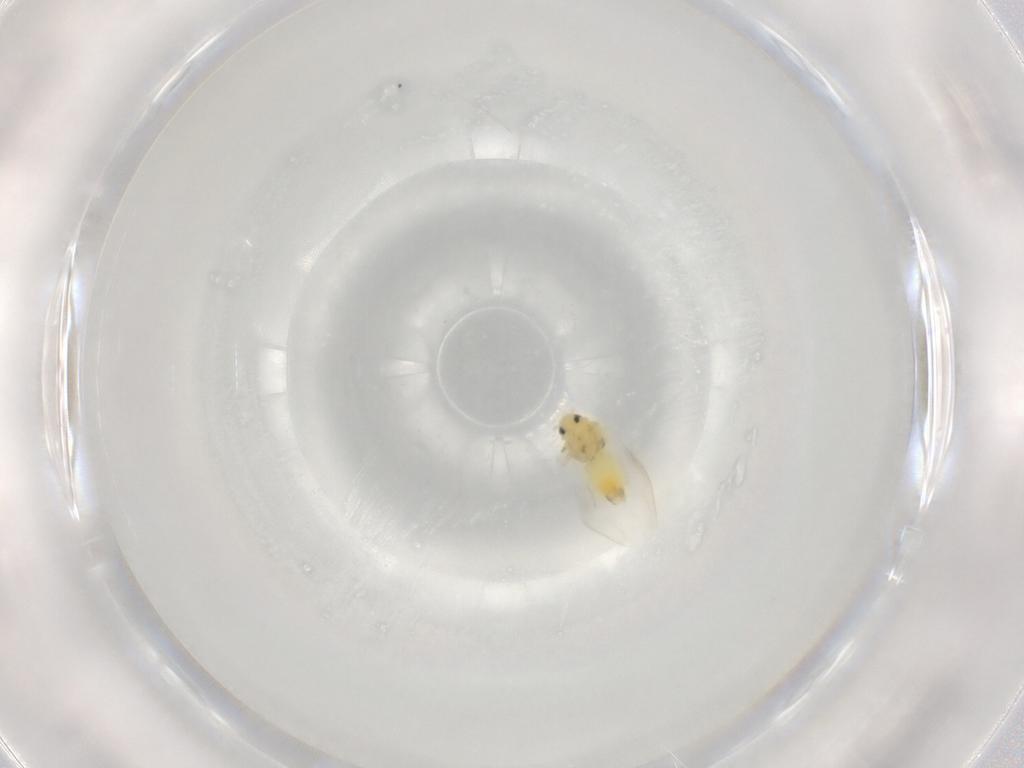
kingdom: Animalia
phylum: Arthropoda
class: Insecta
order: Hemiptera
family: Aleyrodidae
